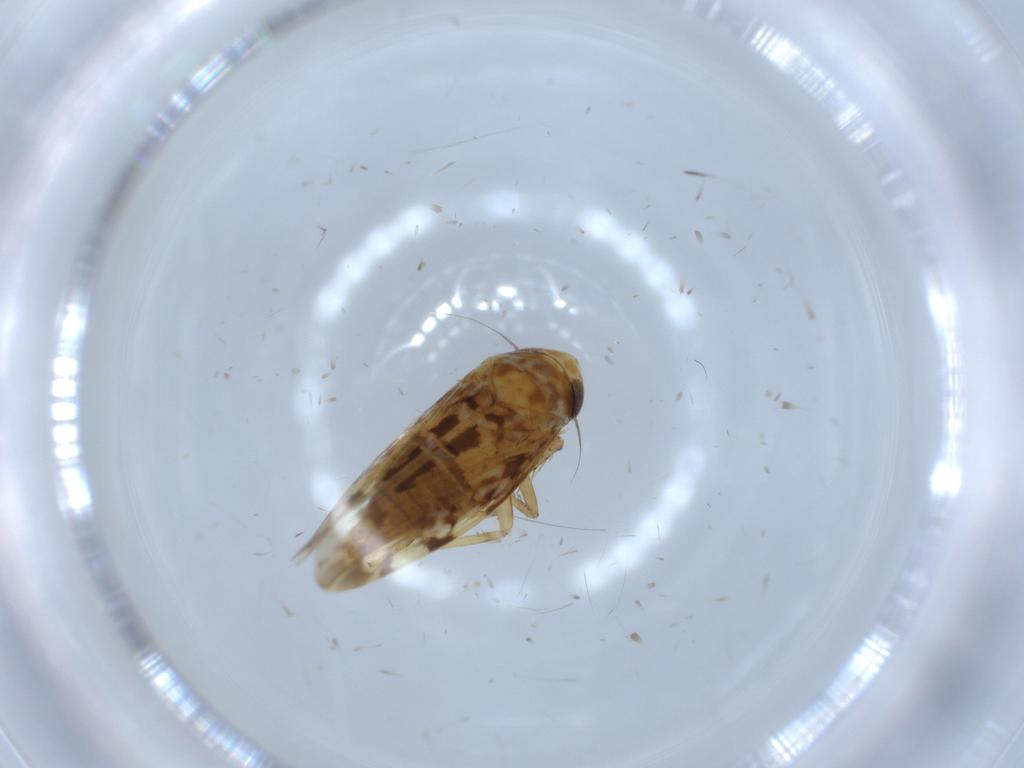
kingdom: Animalia
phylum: Arthropoda
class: Insecta
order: Hemiptera
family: Cicadellidae
